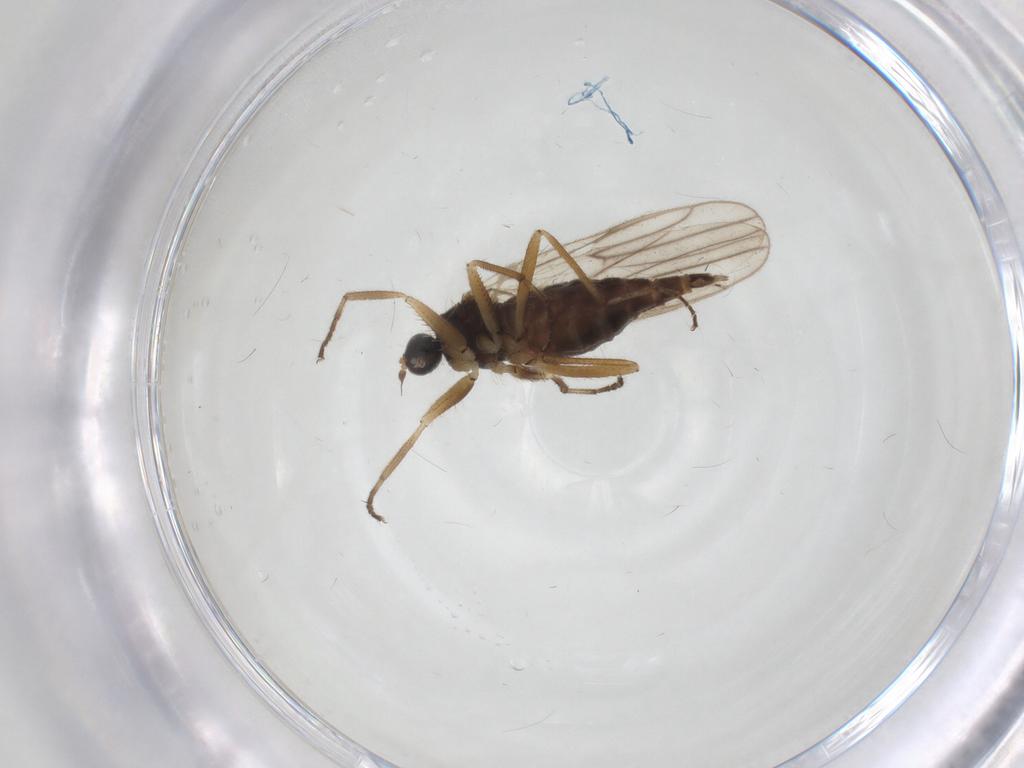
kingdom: Animalia
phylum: Arthropoda
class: Insecta
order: Diptera
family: Hybotidae
